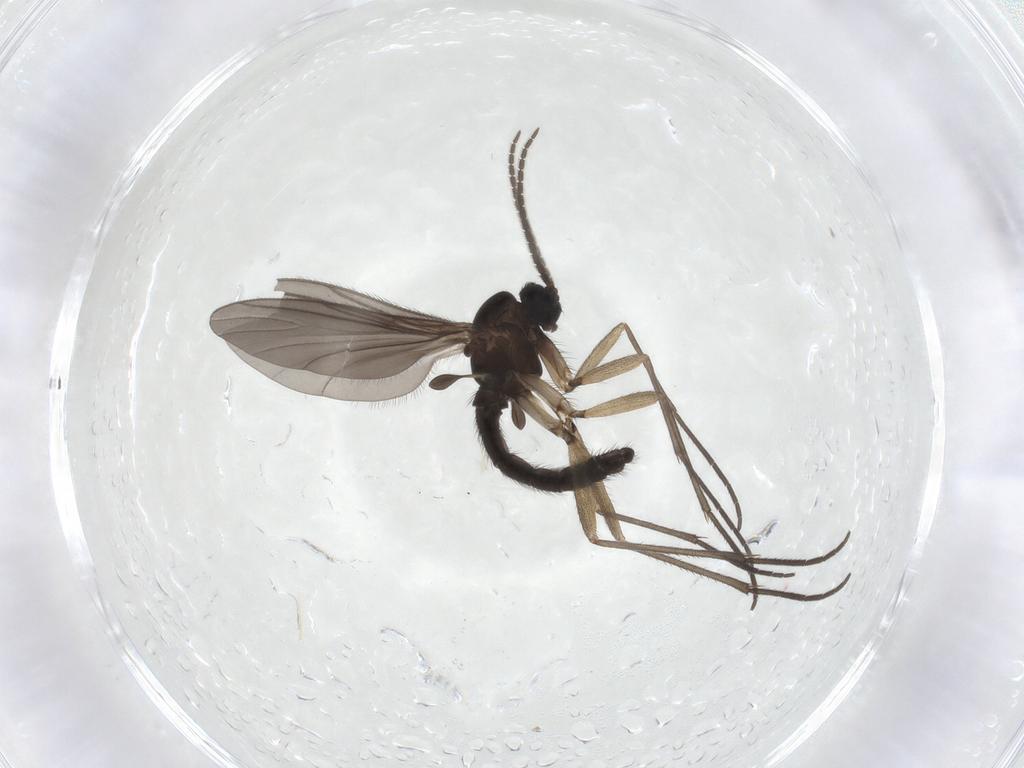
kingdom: Animalia
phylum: Arthropoda
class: Insecta
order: Diptera
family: Sciaridae
